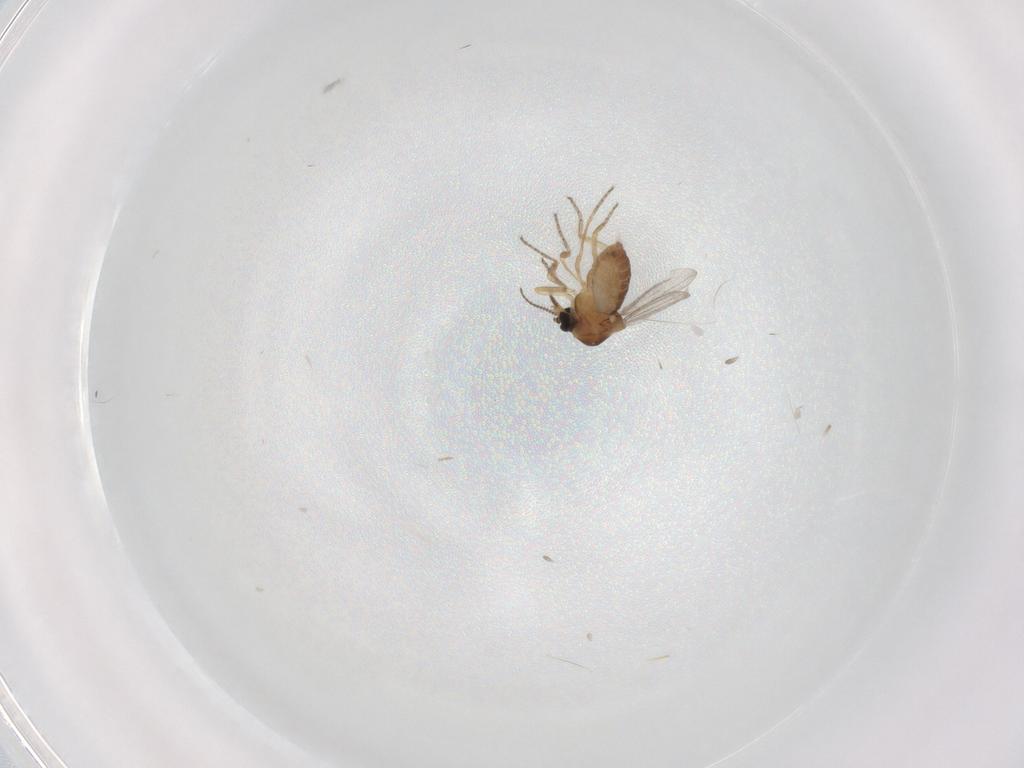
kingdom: Animalia
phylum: Arthropoda
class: Insecta
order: Diptera
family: Ceratopogonidae
